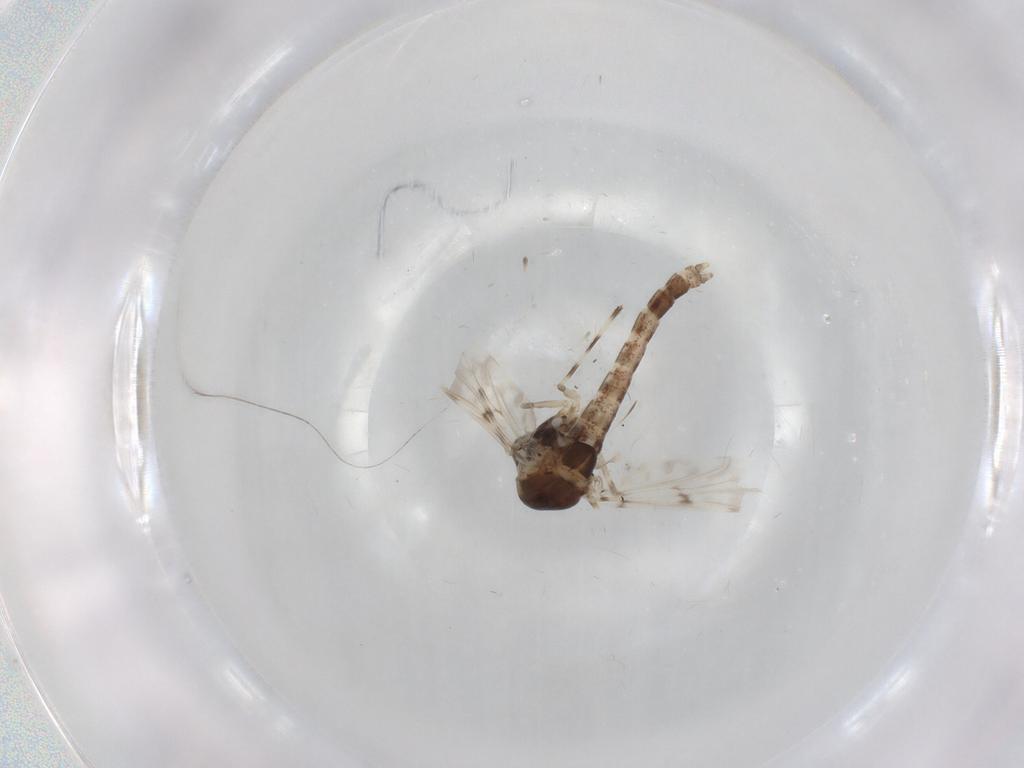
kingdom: Animalia
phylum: Arthropoda
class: Insecta
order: Diptera
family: Chironomidae
